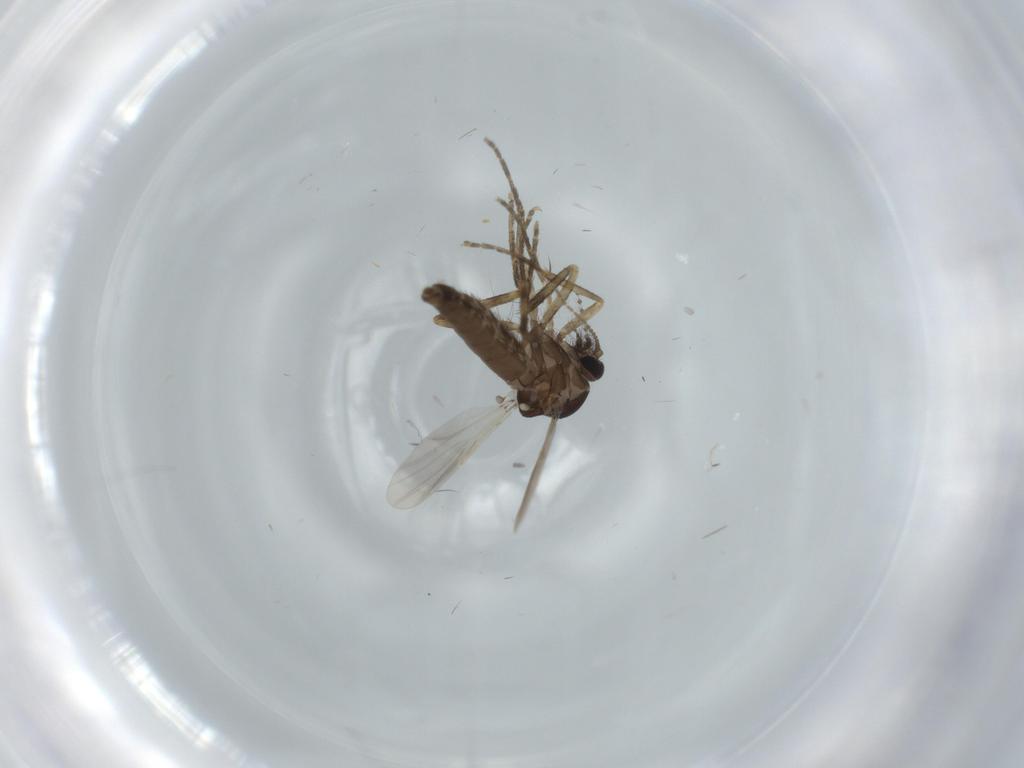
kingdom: Animalia
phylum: Arthropoda
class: Insecta
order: Diptera
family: Ceratopogonidae
